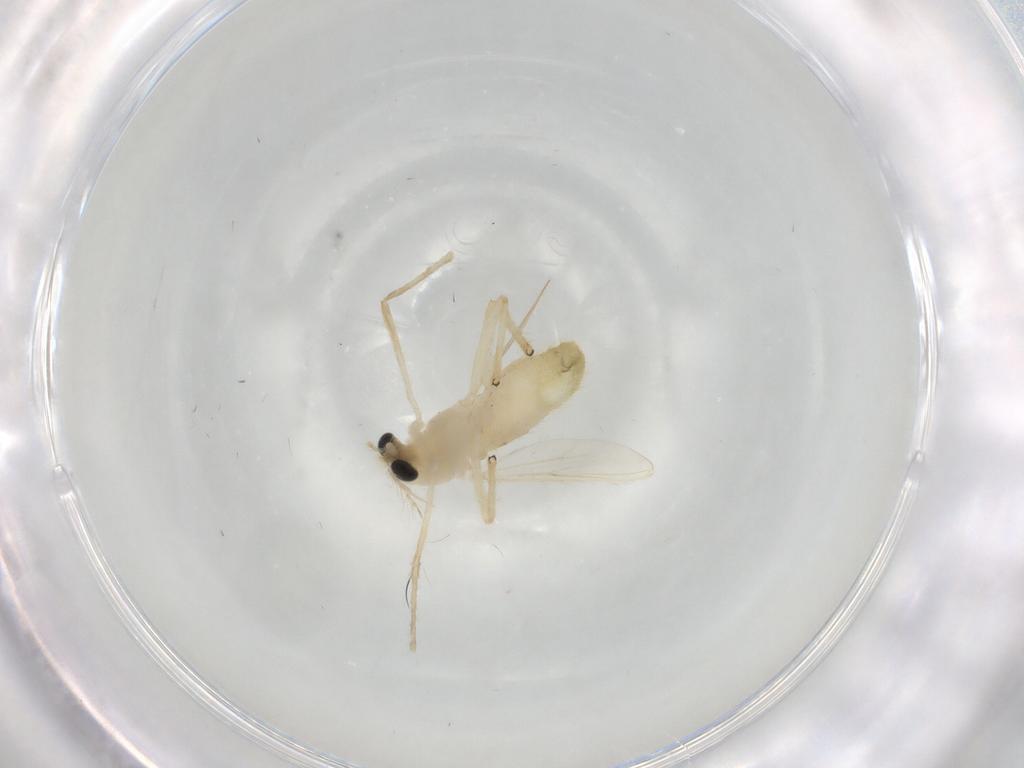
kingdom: Animalia
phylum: Arthropoda
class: Insecta
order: Diptera
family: Chironomidae
